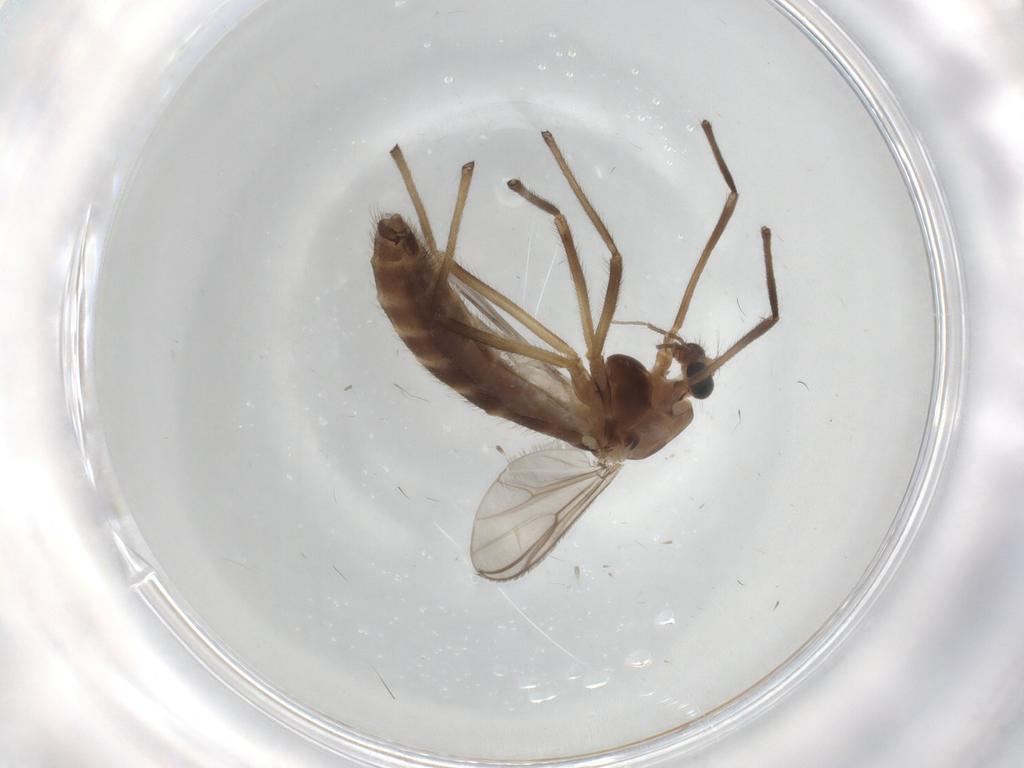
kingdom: Animalia
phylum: Arthropoda
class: Insecta
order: Diptera
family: Chironomidae
